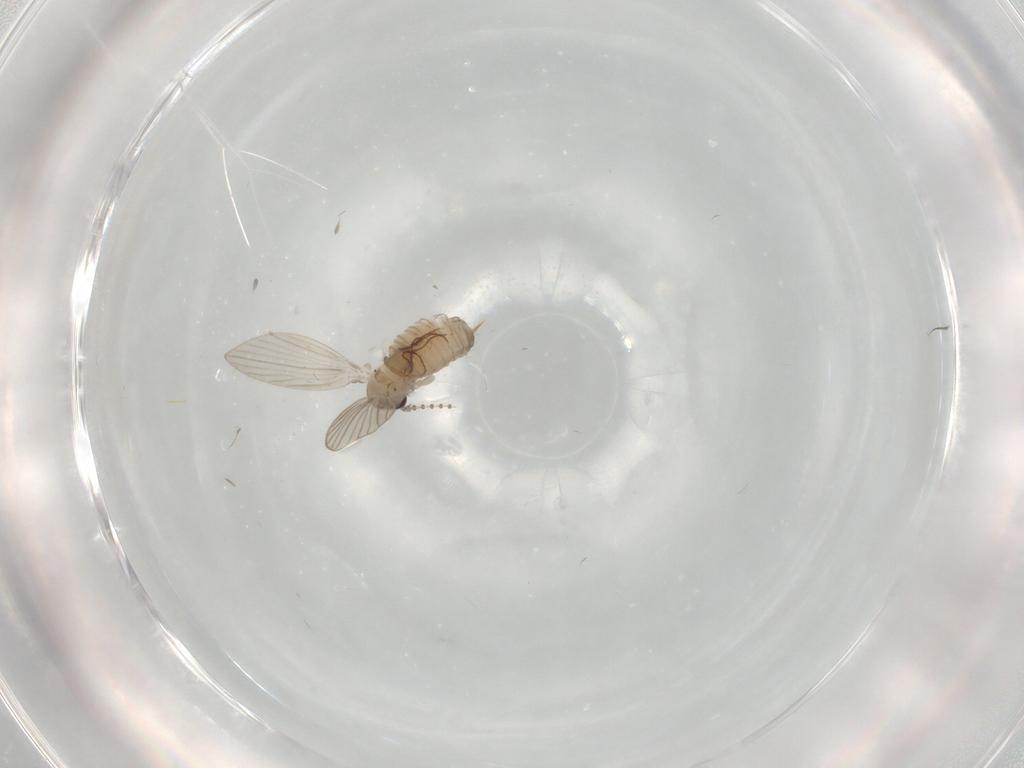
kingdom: Animalia
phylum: Arthropoda
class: Insecta
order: Diptera
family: Psychodidae
